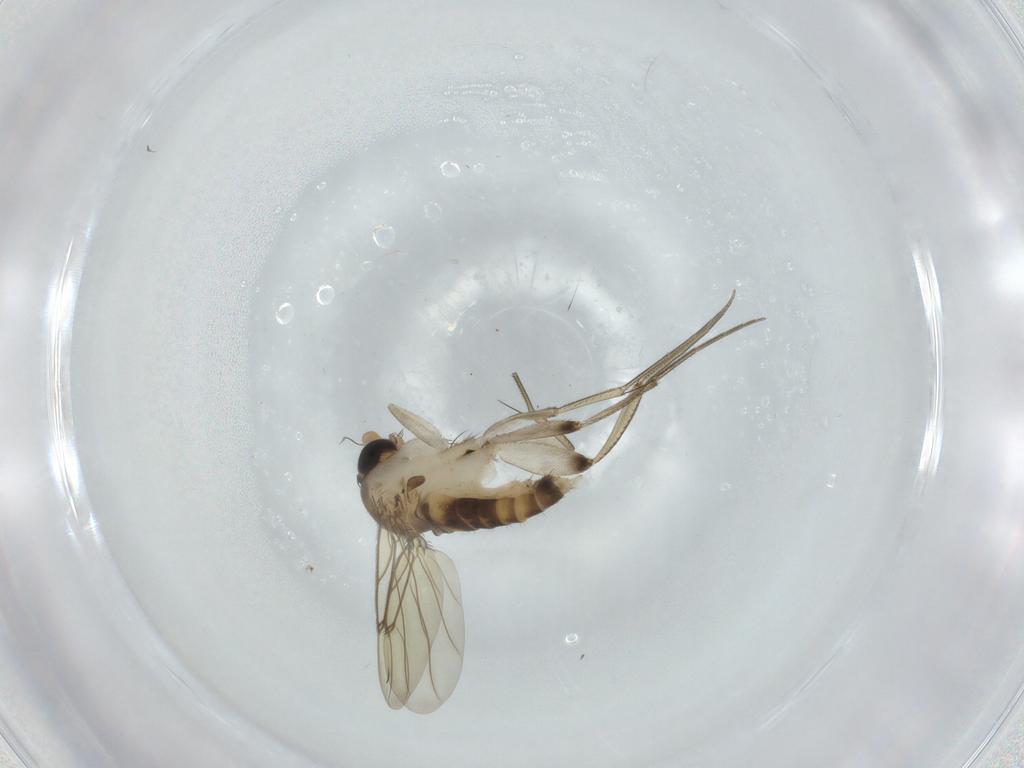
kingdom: Animalia
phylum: Arthropoda
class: Insecta
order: Diptera
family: Phoridae
